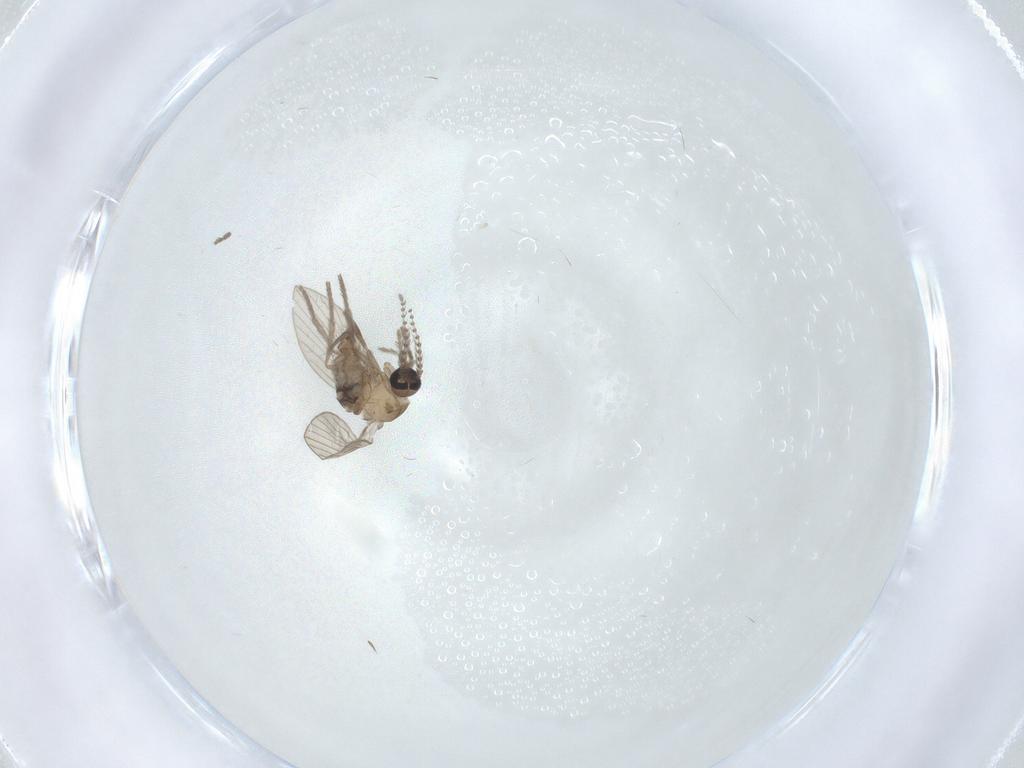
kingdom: Animalia
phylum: Arthropoda
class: Insecta
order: Diptera
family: Psychodidae
